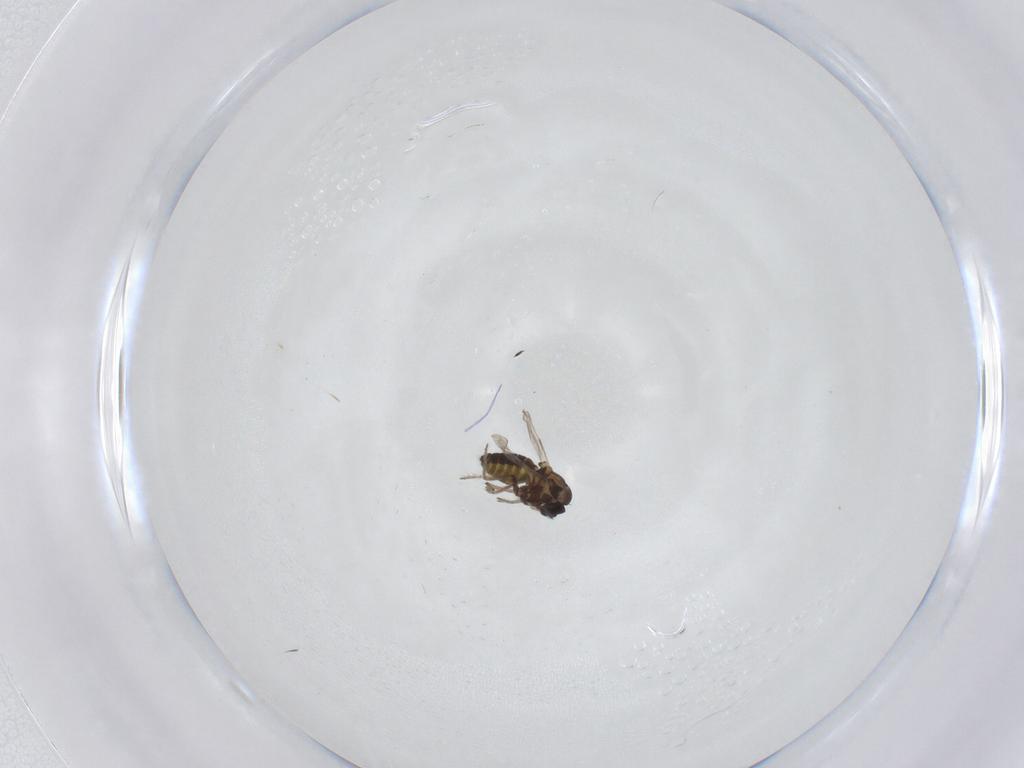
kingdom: Animalia
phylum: Arthropoda
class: Insecta
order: Diptera
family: Ceratopogonidae
